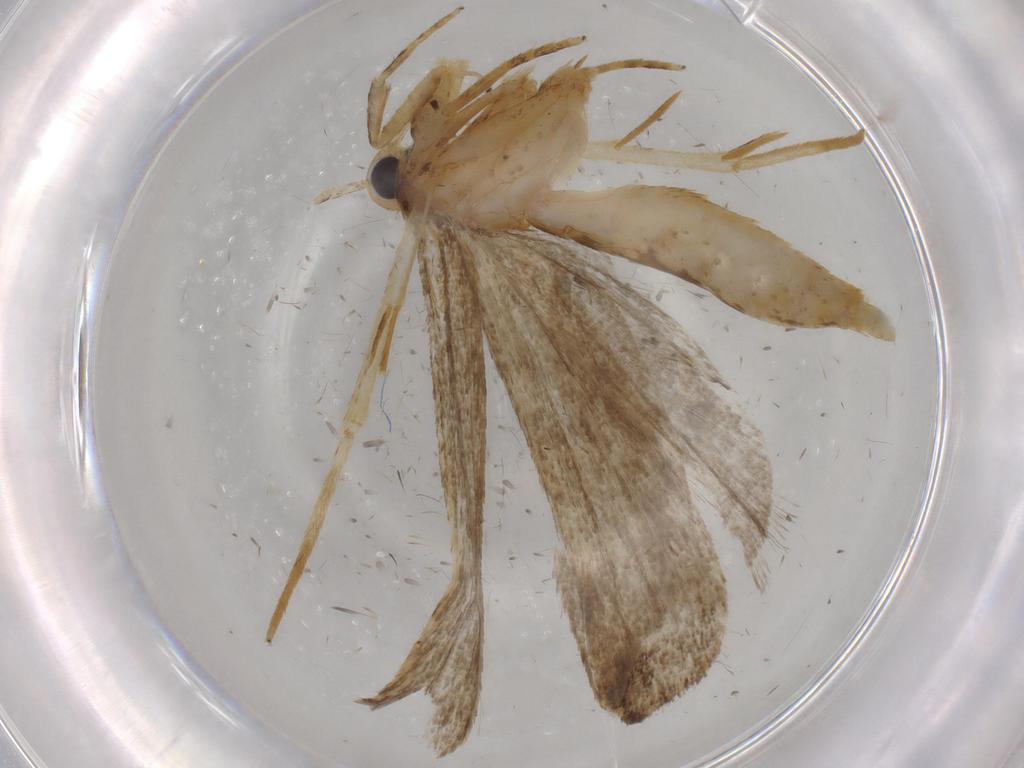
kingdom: Animalia
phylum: Arthropoda
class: Insecta
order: Lepidoptera
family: Autostichidae
